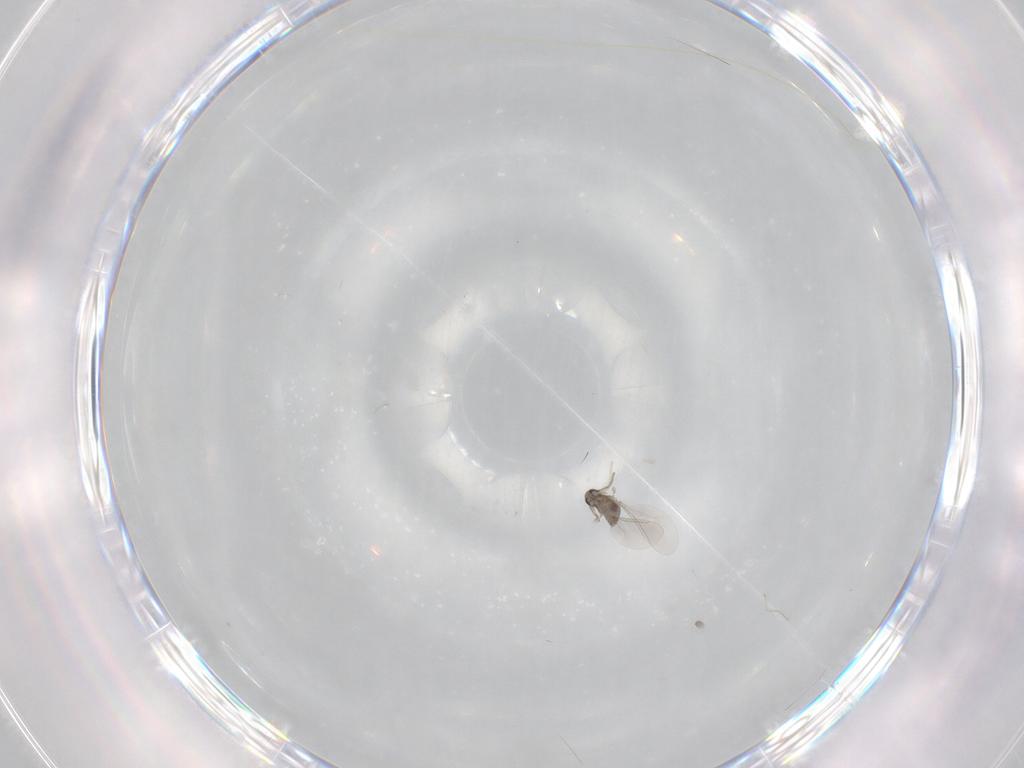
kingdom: Animalia
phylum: Arthropoda
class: Insecta
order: Diptera
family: Cecidomyiidae
